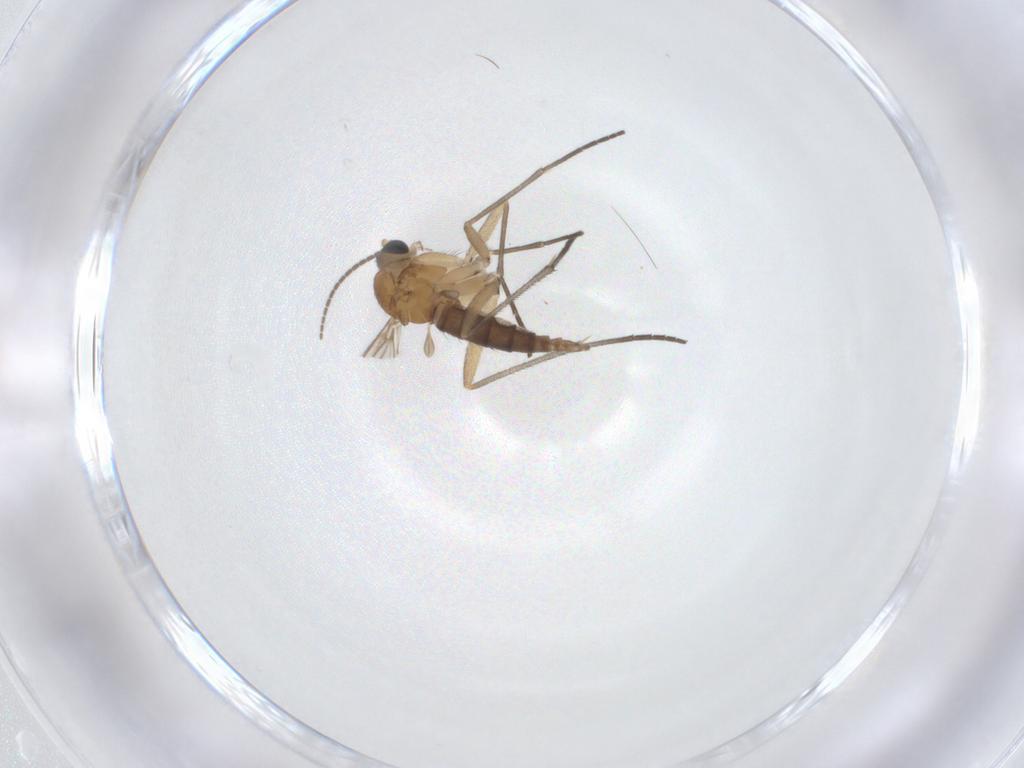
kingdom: Animalia
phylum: Arthropoda
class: Insecta
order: Diptera
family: Sciaridae
